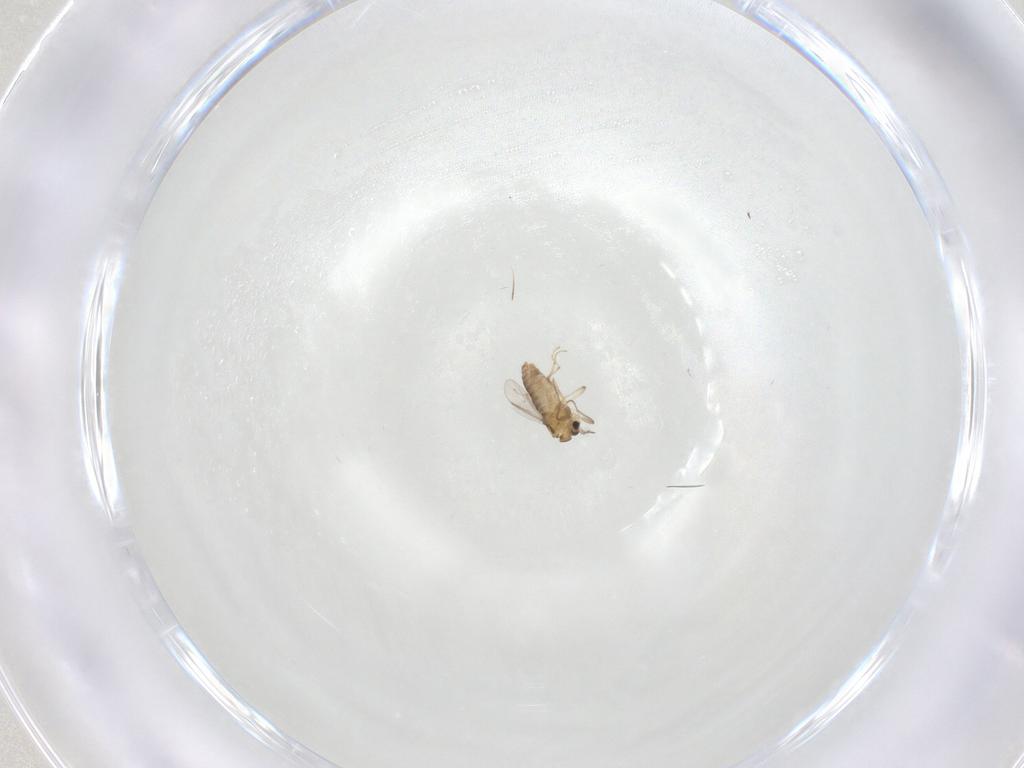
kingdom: Animalia
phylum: Arthropoda
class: Insecta
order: Diptera
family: Chironomidae
